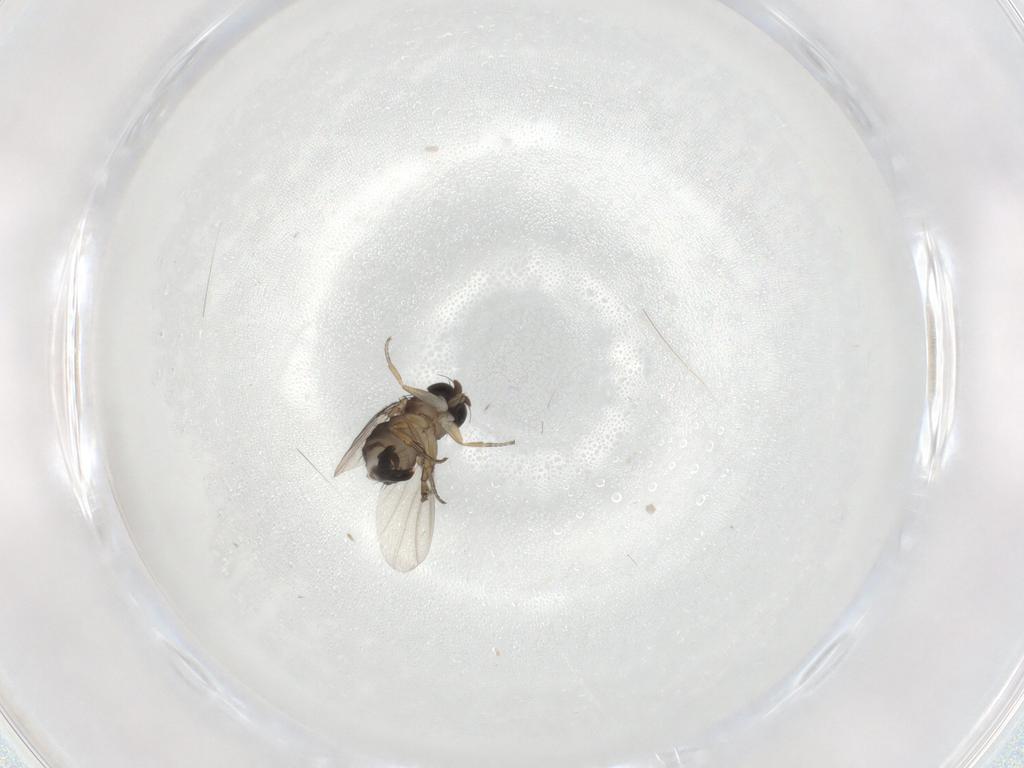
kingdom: Animalia
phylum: Arthropoda
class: Insecta
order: Diptera
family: Phoridae
